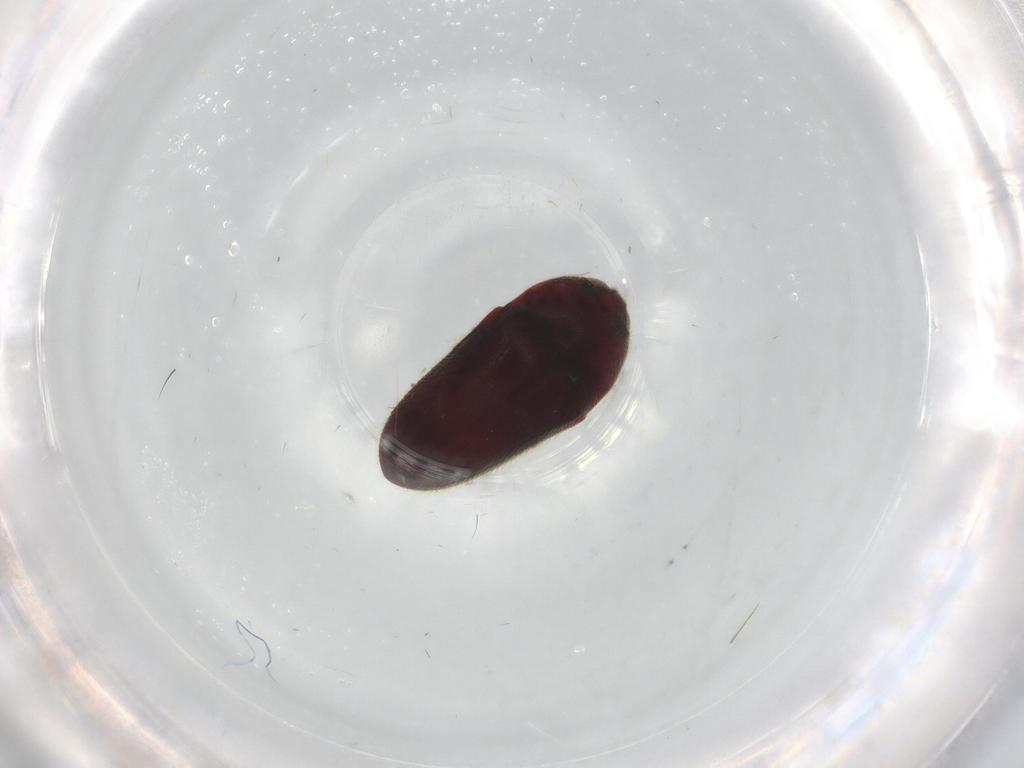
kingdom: Animalia
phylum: Arthropoda
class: Insecta
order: Coleoptera
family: Throscidae
